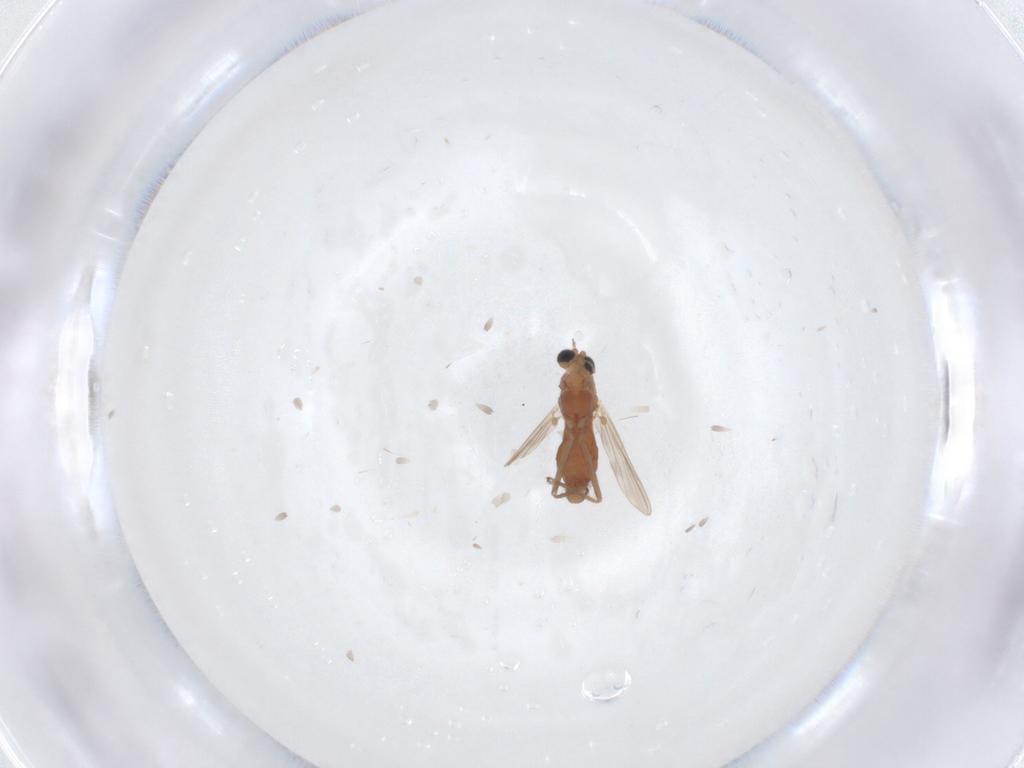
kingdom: Animalia
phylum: Arthropoda
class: Insecta
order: Diptera
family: Chironomidae
